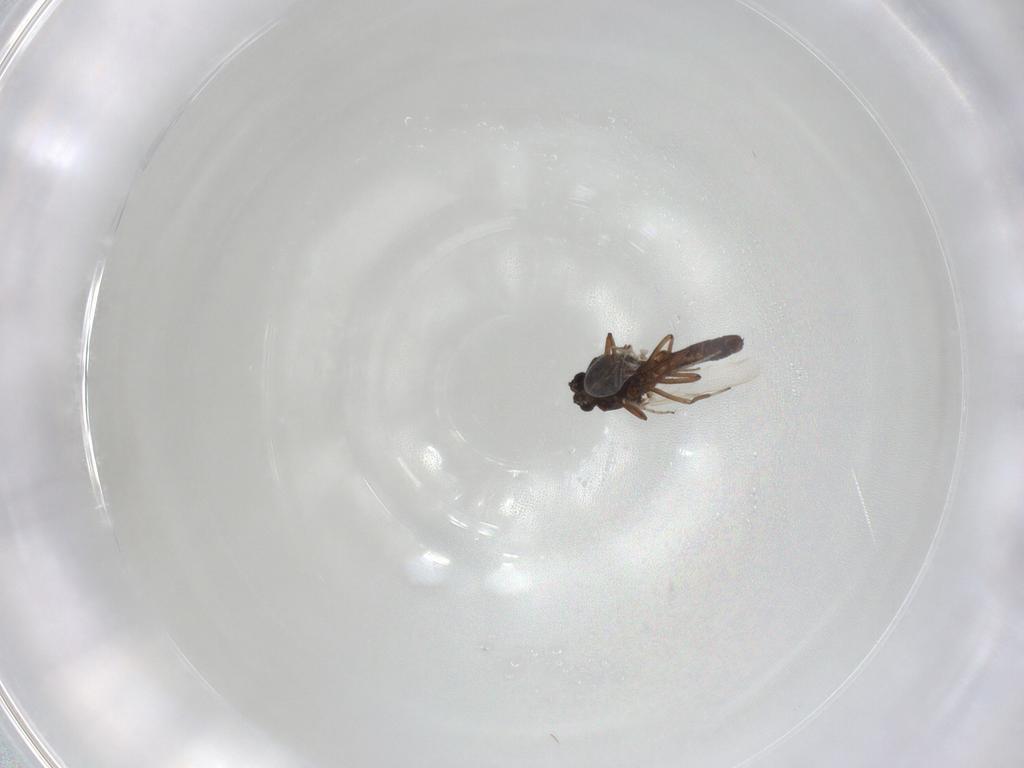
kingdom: Animalia
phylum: Arthropoda
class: Insecta
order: Diptera
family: Ceratopogonidae
